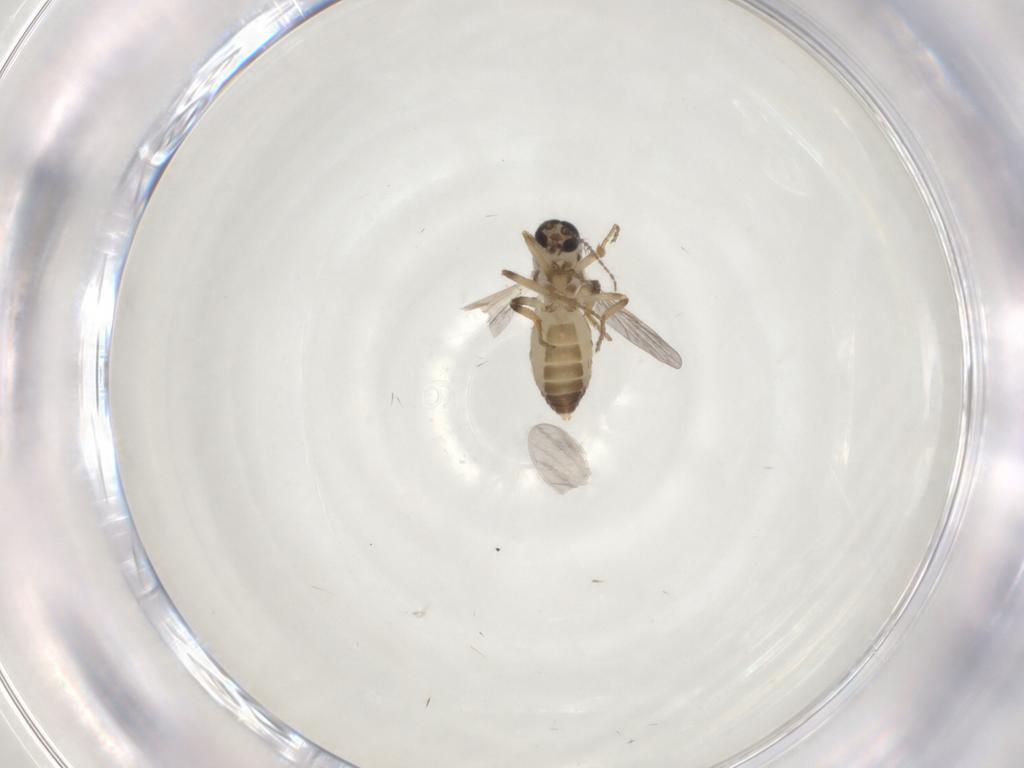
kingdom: Animalia
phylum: Arthropoda
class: Insecta
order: Diptera
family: Ceratopogonidae
